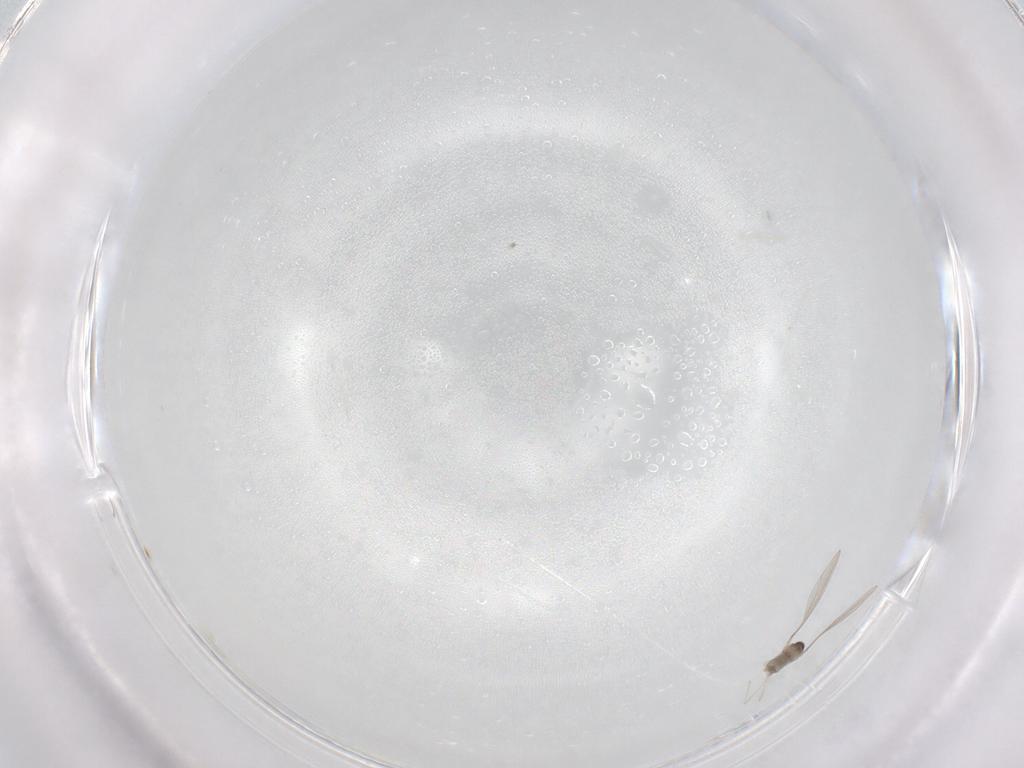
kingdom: Animalia
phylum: Arthropoda
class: Insecta
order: Diptera
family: Cecidomyiidae
